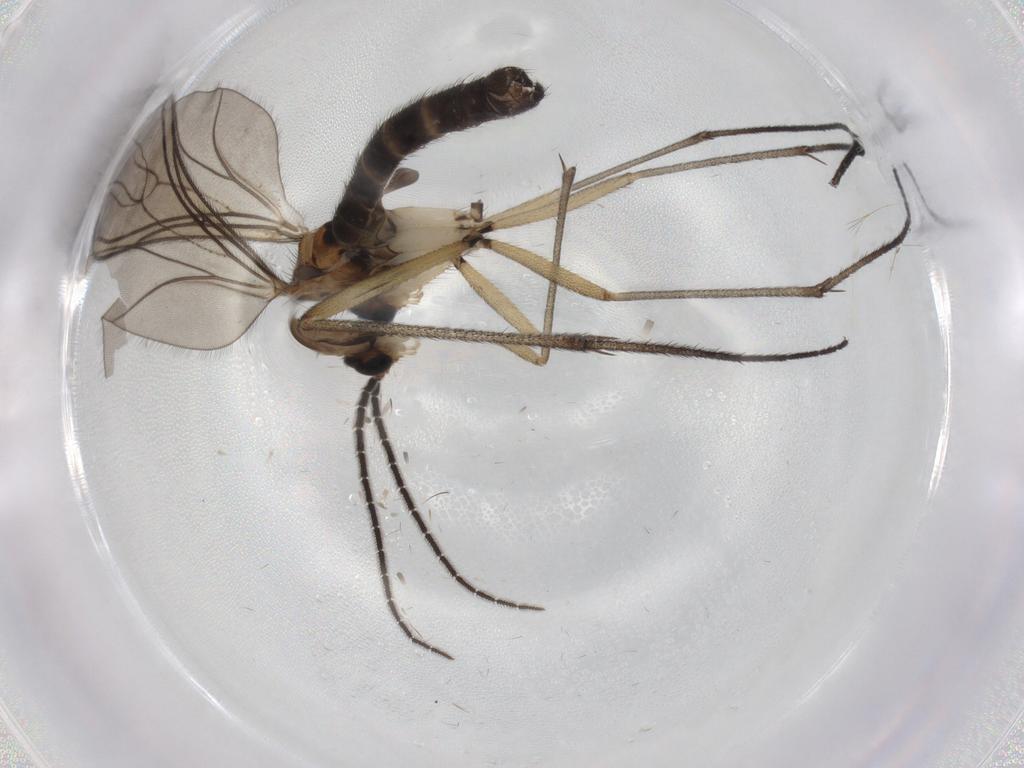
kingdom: Animalia
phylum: Arthropoda
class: Insecta
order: Diptera
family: Sciaridae
